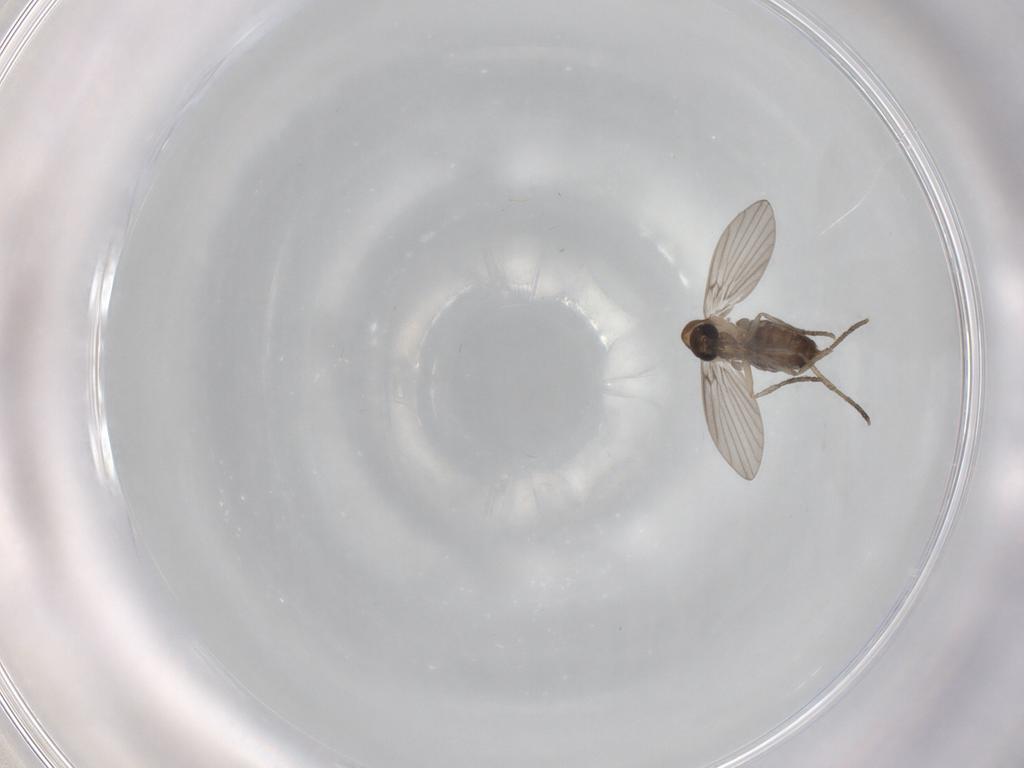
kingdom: Animalia
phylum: Arthropoda
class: Insecta
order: Diptera
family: Psychodidae
